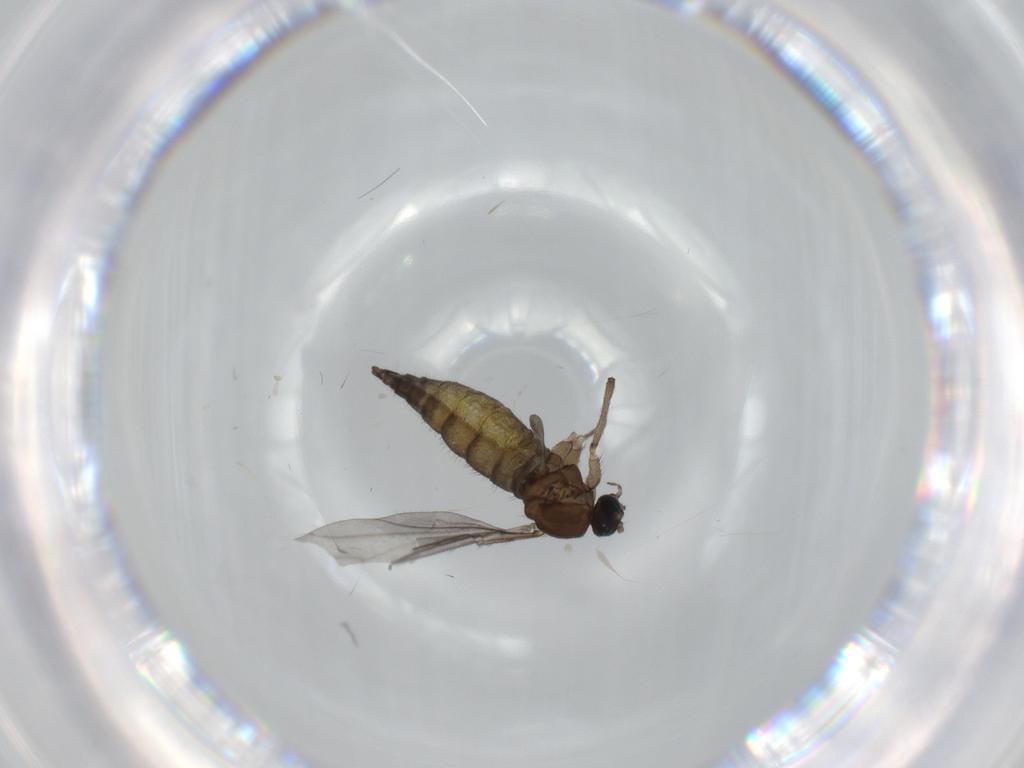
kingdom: Animalia
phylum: Arthropoda
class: Insecta
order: Diptera
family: Sciaridae
